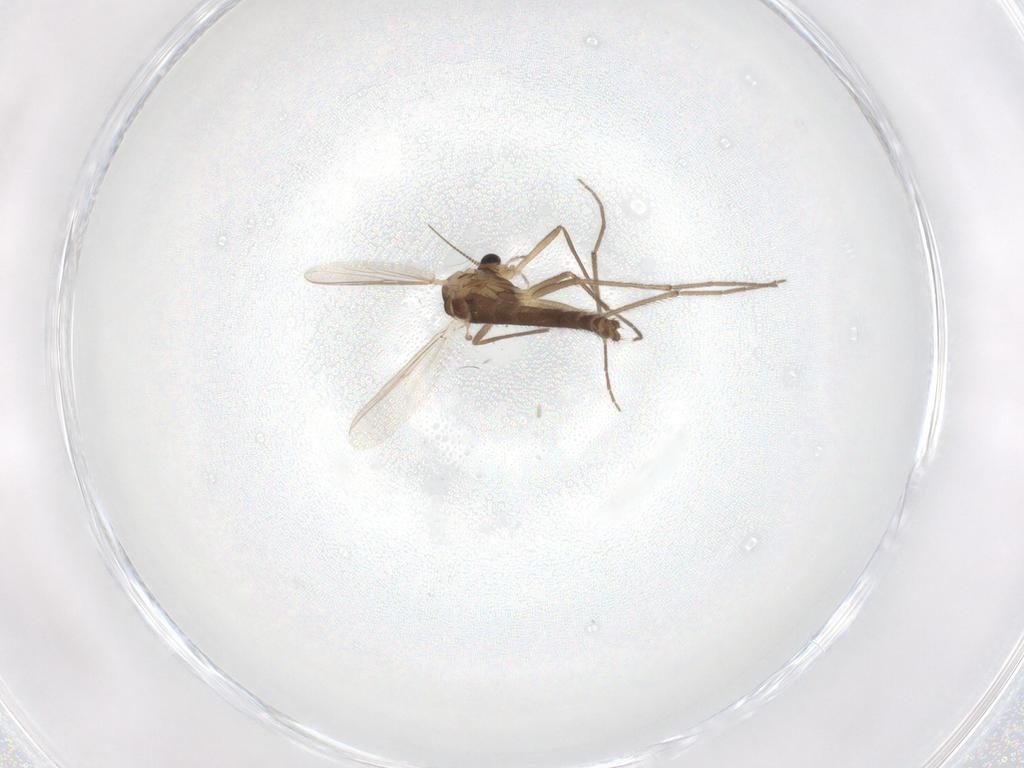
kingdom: Animalia
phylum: Arthropoda
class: Insecta
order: Diptera
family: Chironomidae
